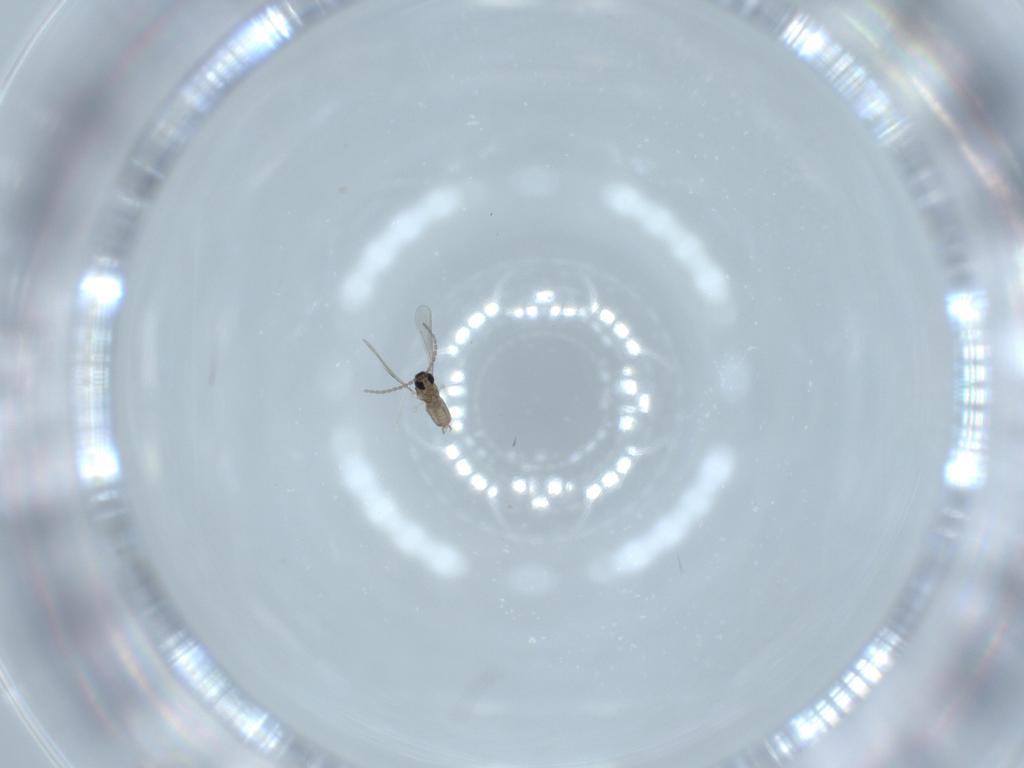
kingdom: Animalia
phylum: Arthropoda
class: Insecta
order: Diptera
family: Cecidomyiidae
